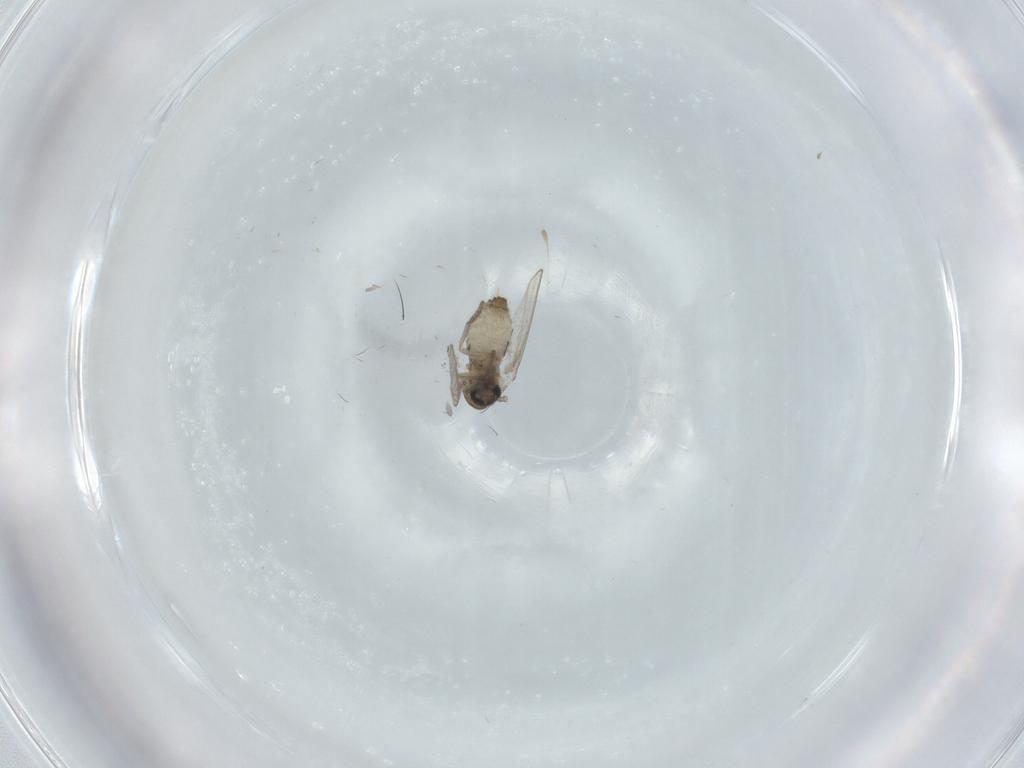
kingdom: Animalia
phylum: Arthropoda
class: Insecta
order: Diptera
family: Psychodidae
